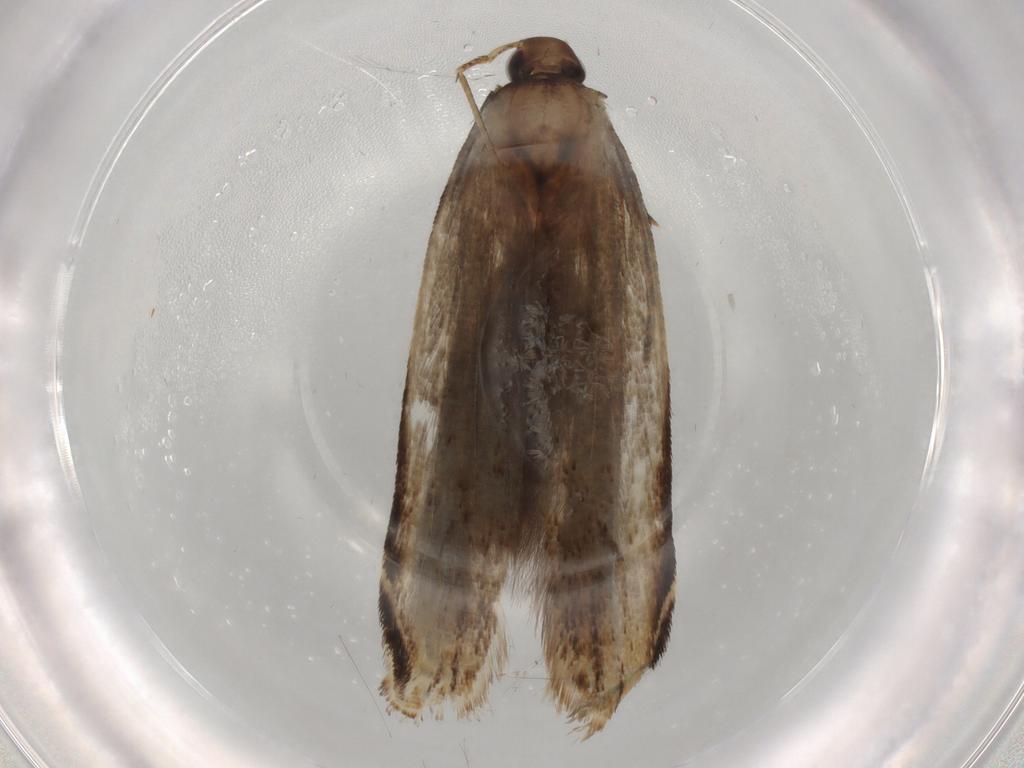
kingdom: Animalia
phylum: Arthropoda
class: Insecta
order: Lepidoptera
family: Gelechiidae
